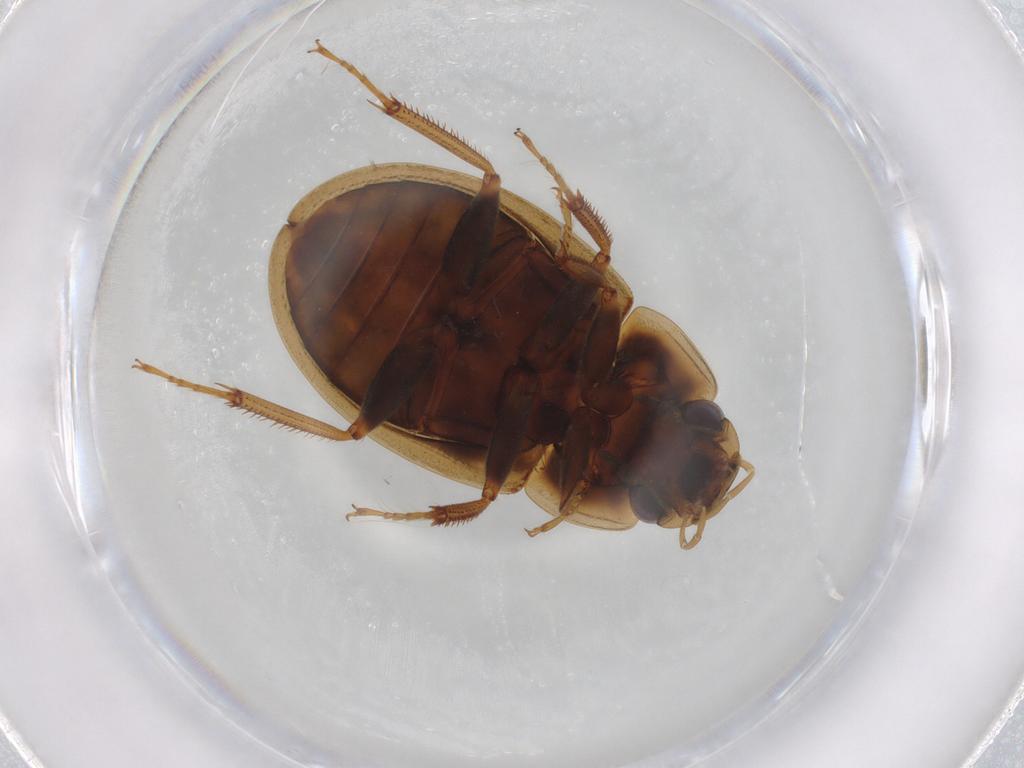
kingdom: Animalia
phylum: Arthropoda
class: Insecta
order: Coleoptera
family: Hydrophilidae
